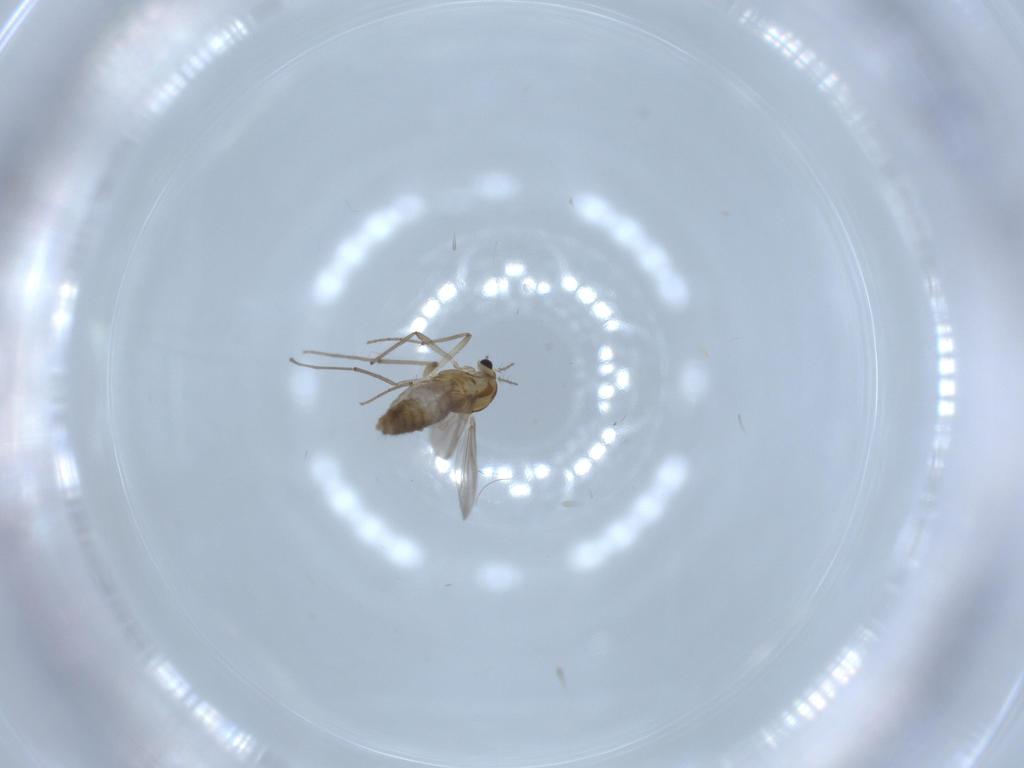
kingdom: Animalia
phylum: Arthropoda
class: Insecta
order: Diptera
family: Chironomidae
